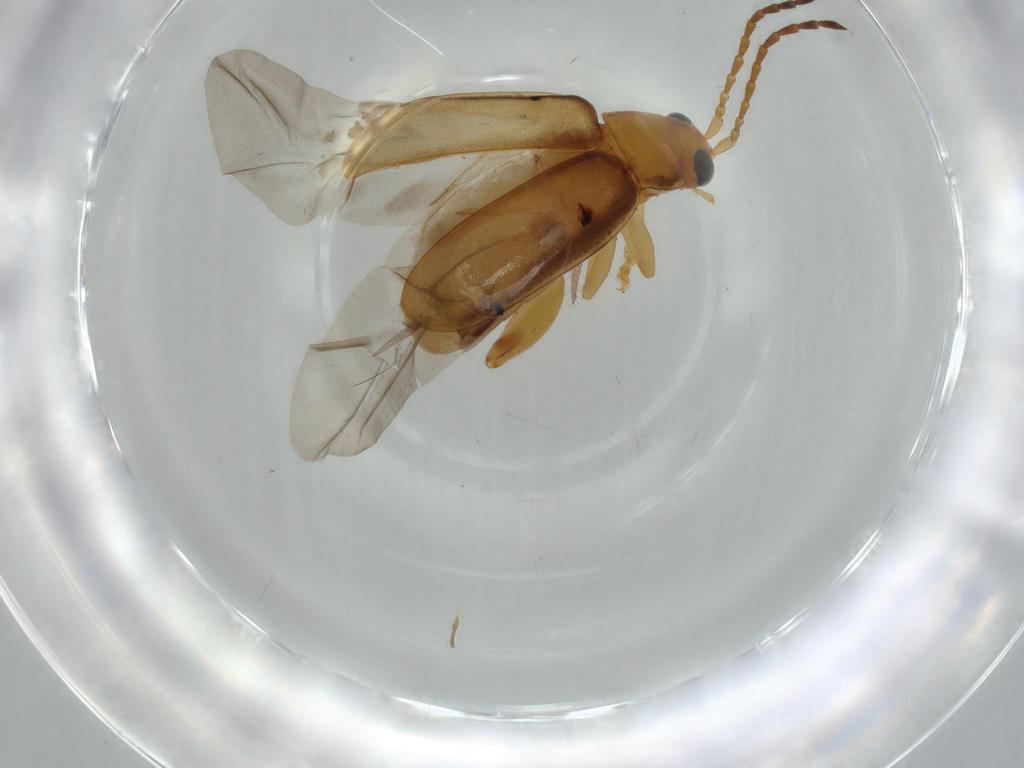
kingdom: Animalia
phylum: Arthropoda
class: Insecta
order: Coleoptera
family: Chrysomelidae
